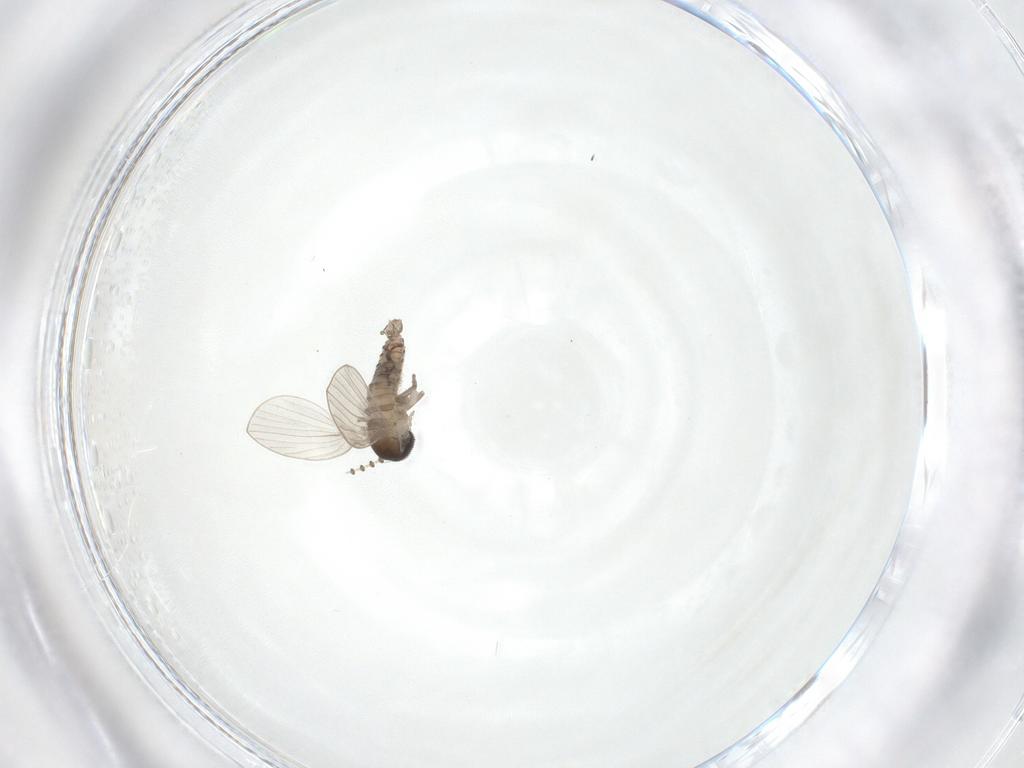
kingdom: Animalia
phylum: Arthropoda
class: Insecta
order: Diptera
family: Psychodidae
